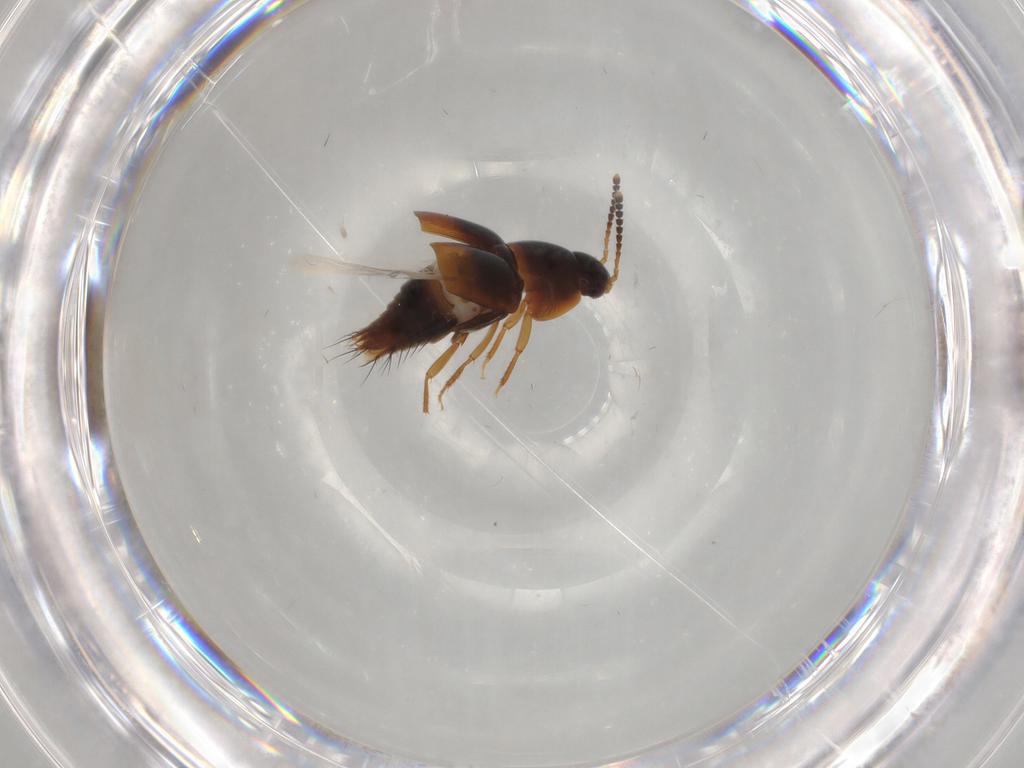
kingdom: Animalia
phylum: Arthropoda
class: Insecta
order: Coleoptera
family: Staphylinidae
